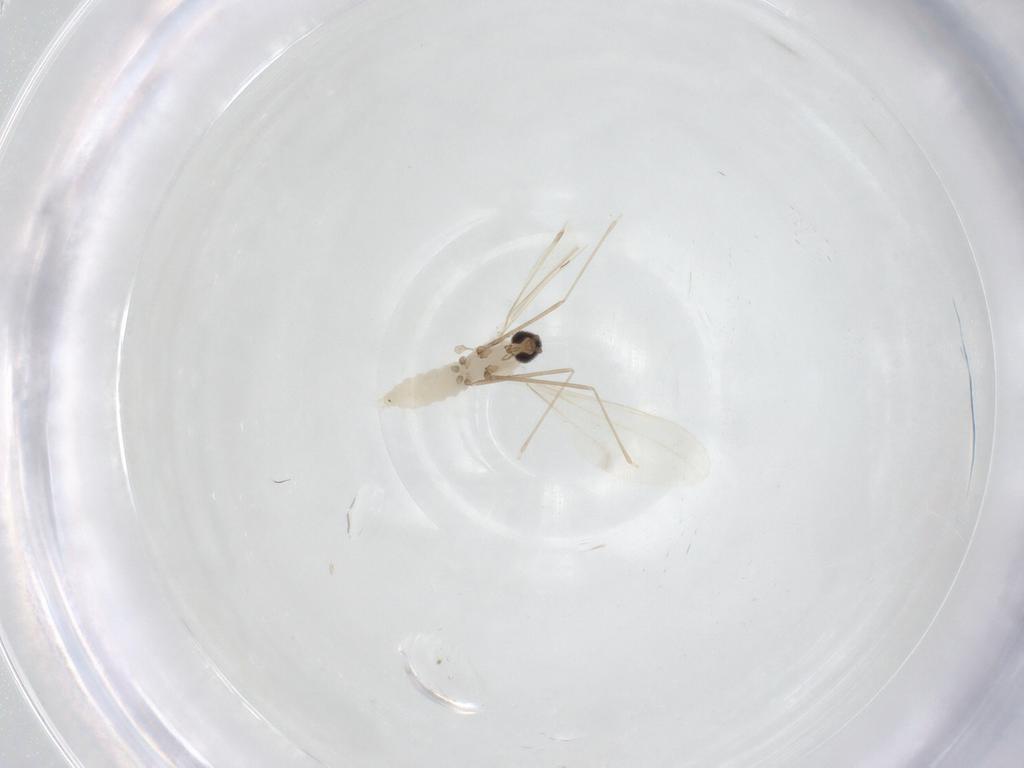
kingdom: Animalia
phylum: Arthropoda
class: Insecta
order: Diptera
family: Cecidomyiidae
